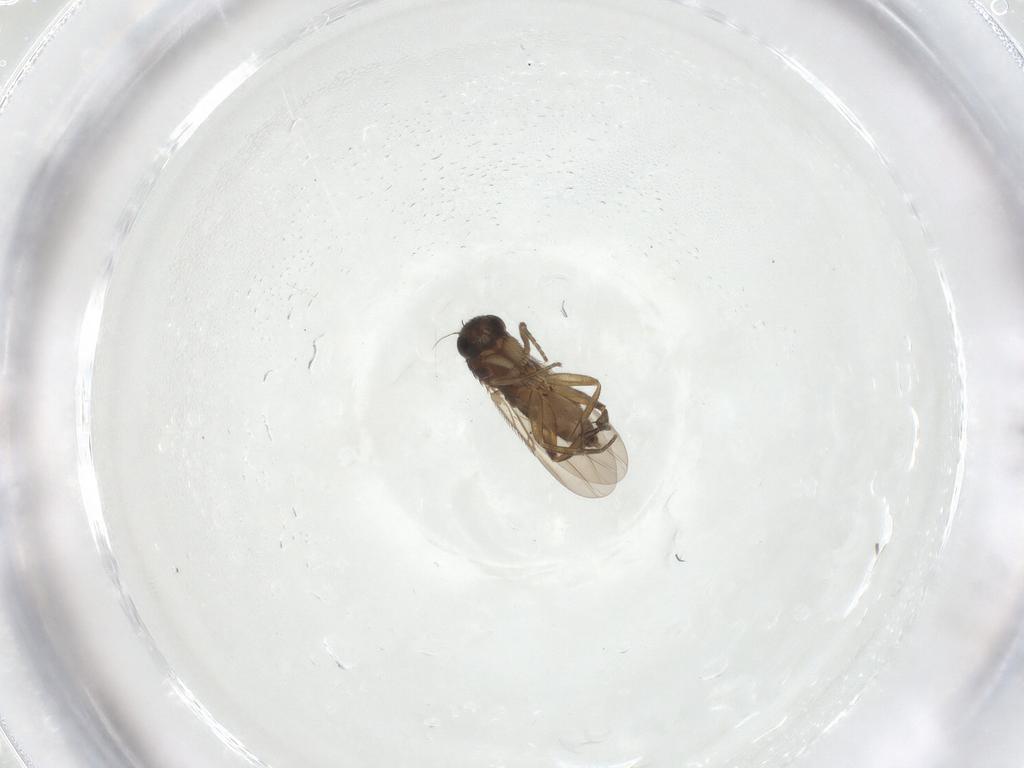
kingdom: Animalia
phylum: Arthropoda
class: Insecta
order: Diptera
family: Phoridae
